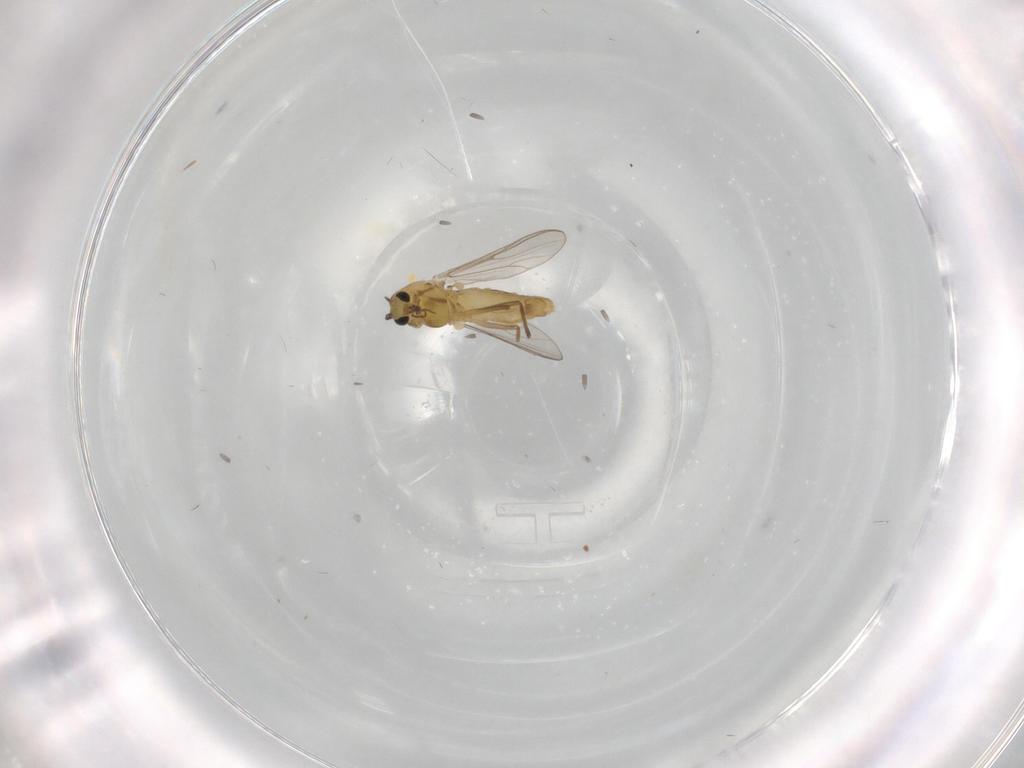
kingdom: Animalia
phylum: Arthropoda
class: Insecta
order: Diptera
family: Chironomidae
